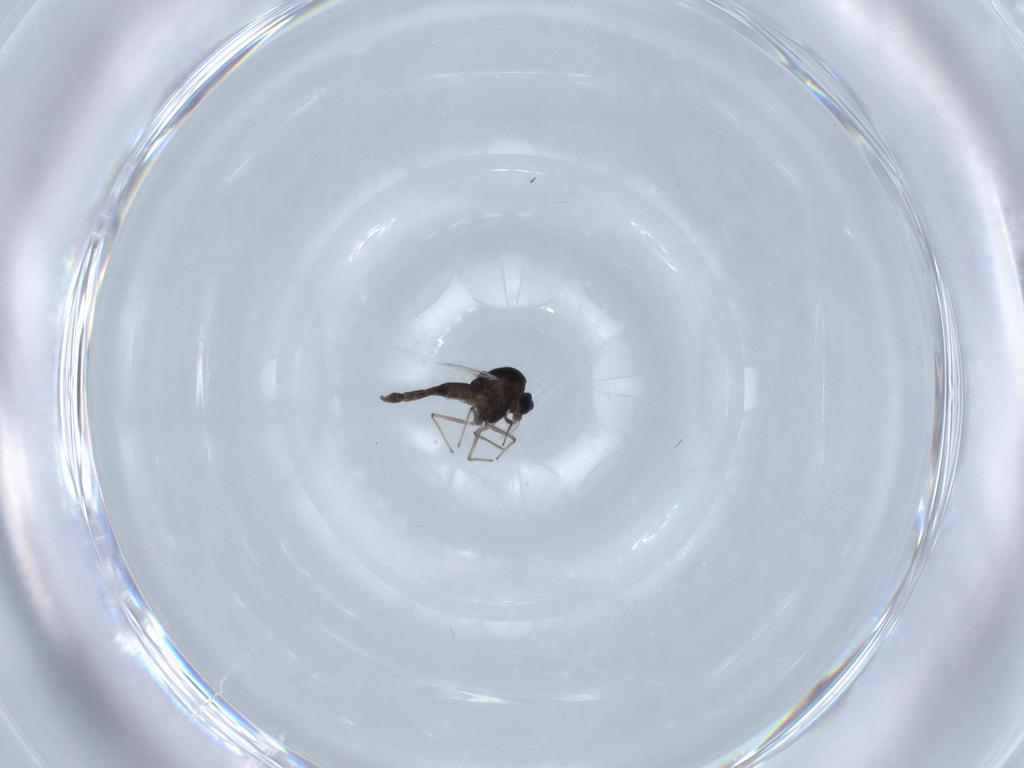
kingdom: Animalia
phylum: Arthropoda
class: Insecta
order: Diptera
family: Chironomidae
